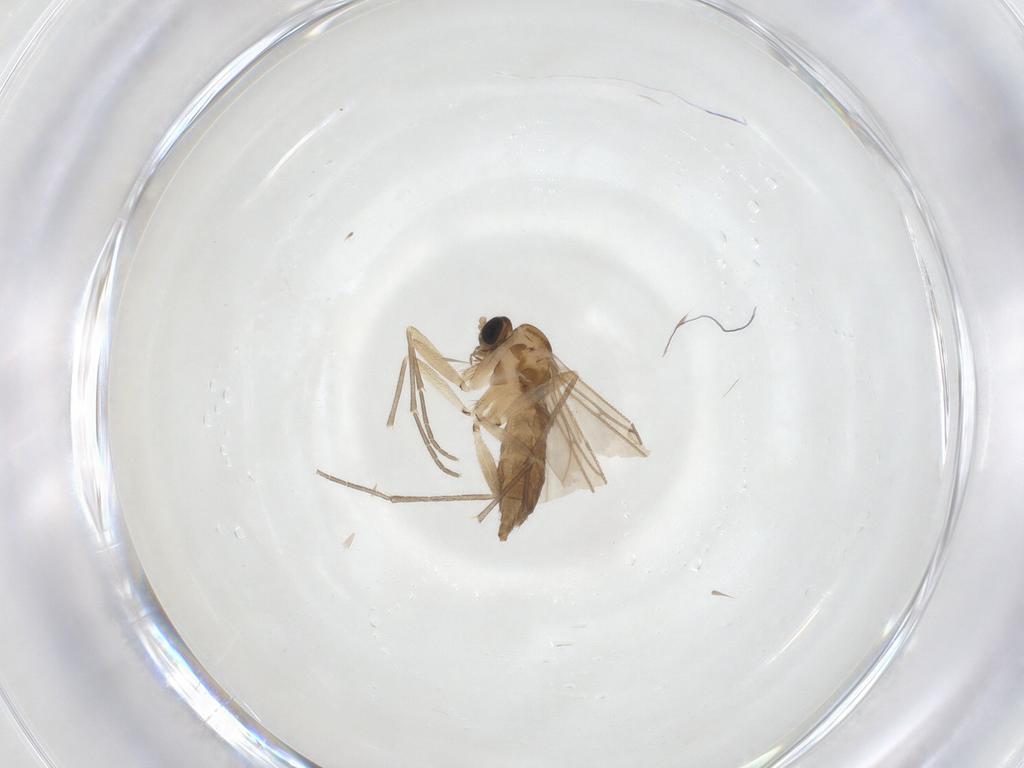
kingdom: Animalia
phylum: Arthropoda
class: Insecta
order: Diptera
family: Sciaridae
